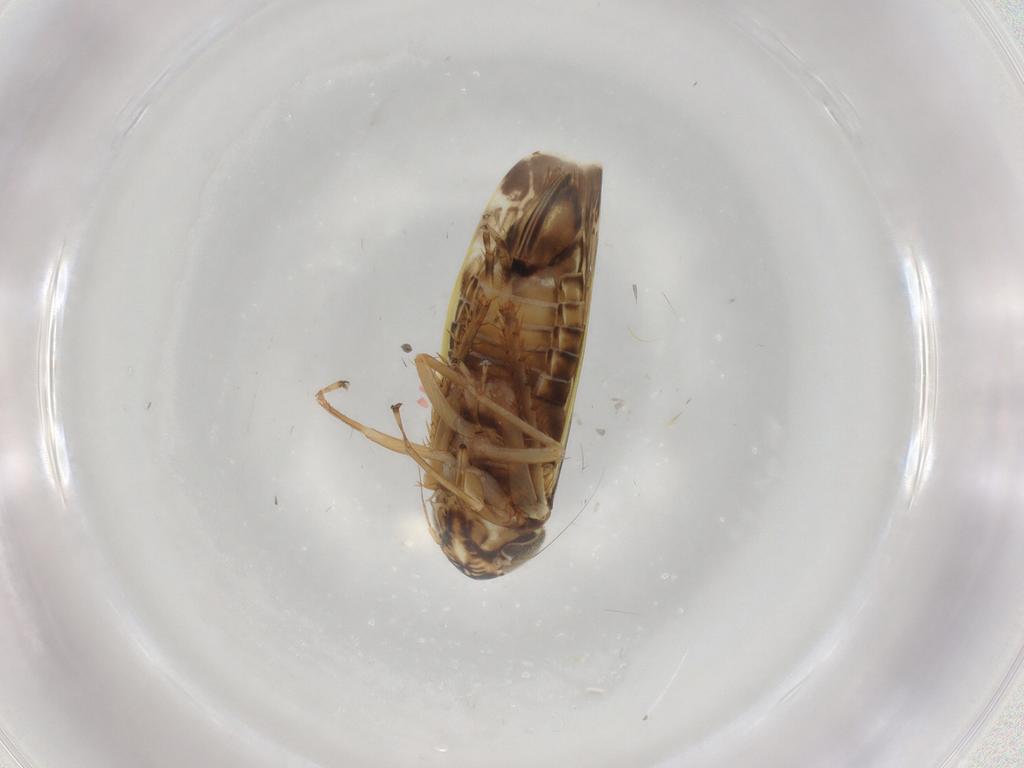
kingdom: Animalia
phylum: Arthropoda
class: Insecta
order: Hemiptera
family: Cicadellidae
